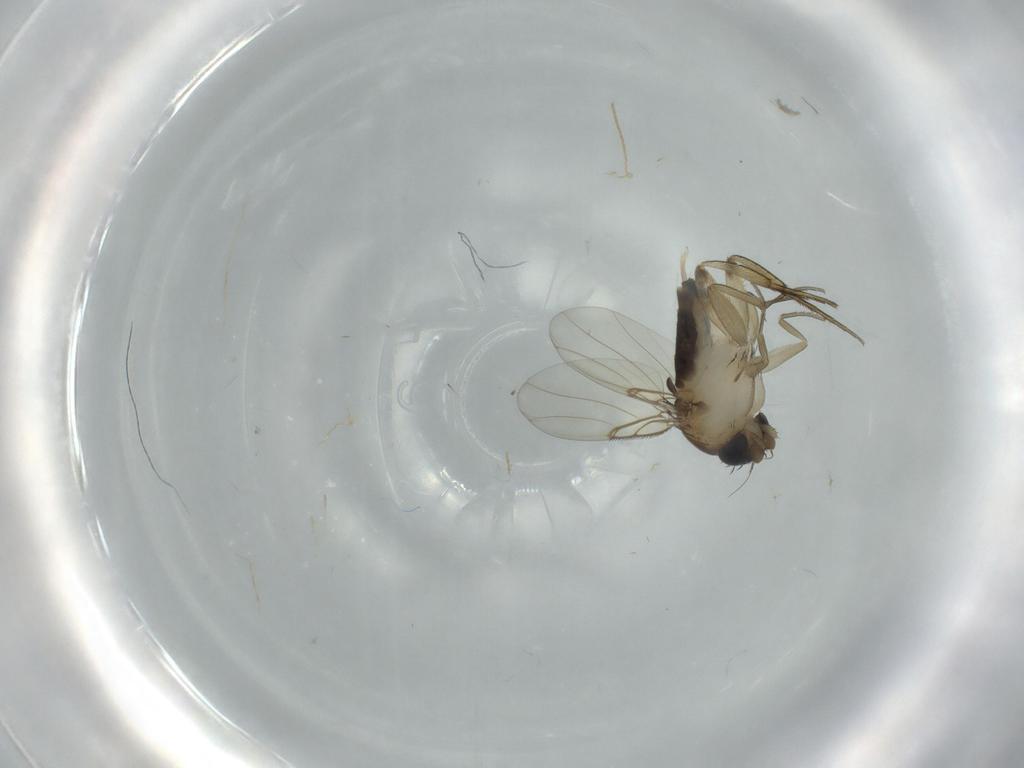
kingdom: Animalia
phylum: Arthropoda
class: Insecta
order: Diptera
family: Phoridae
